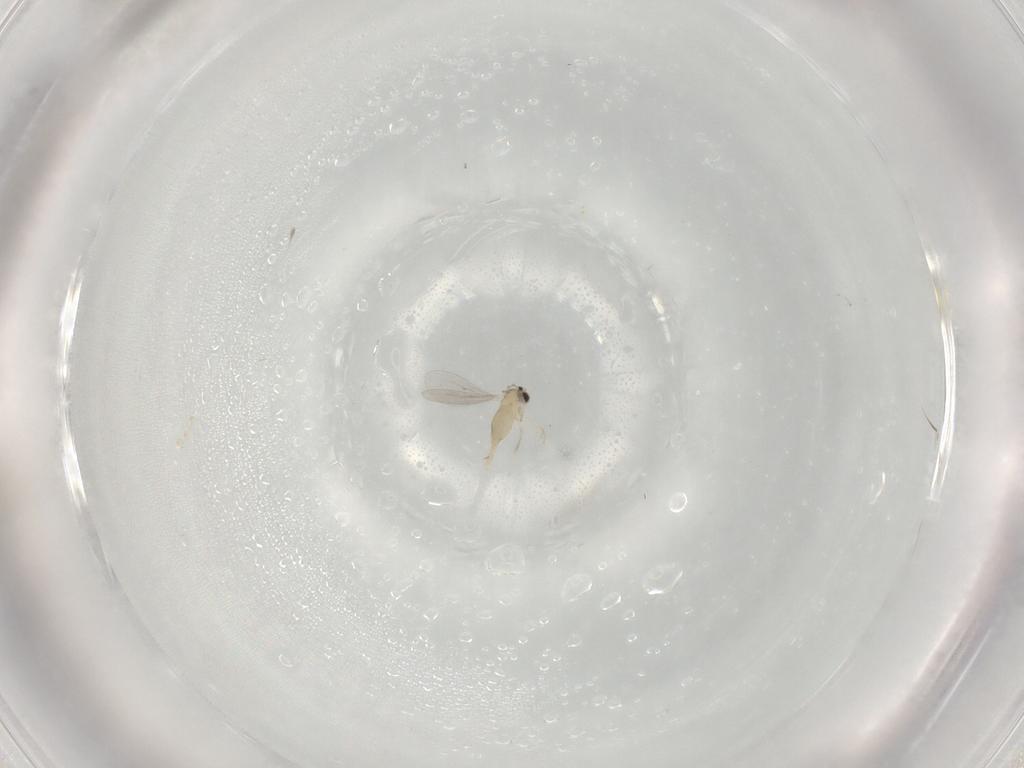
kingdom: Animalia
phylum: Arthropoda
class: Insecta
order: Diptera
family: Cecidomyiidae
